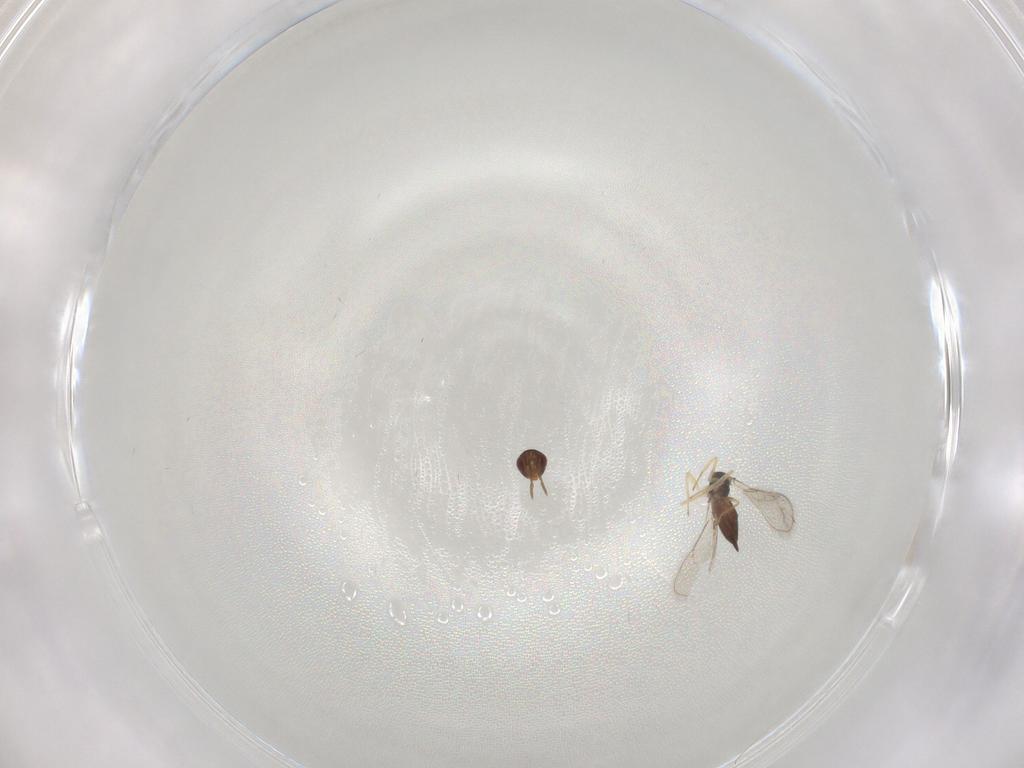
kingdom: Animalia
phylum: Arthropoda
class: Insecta
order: Hymenoptera
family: Eulophidae
